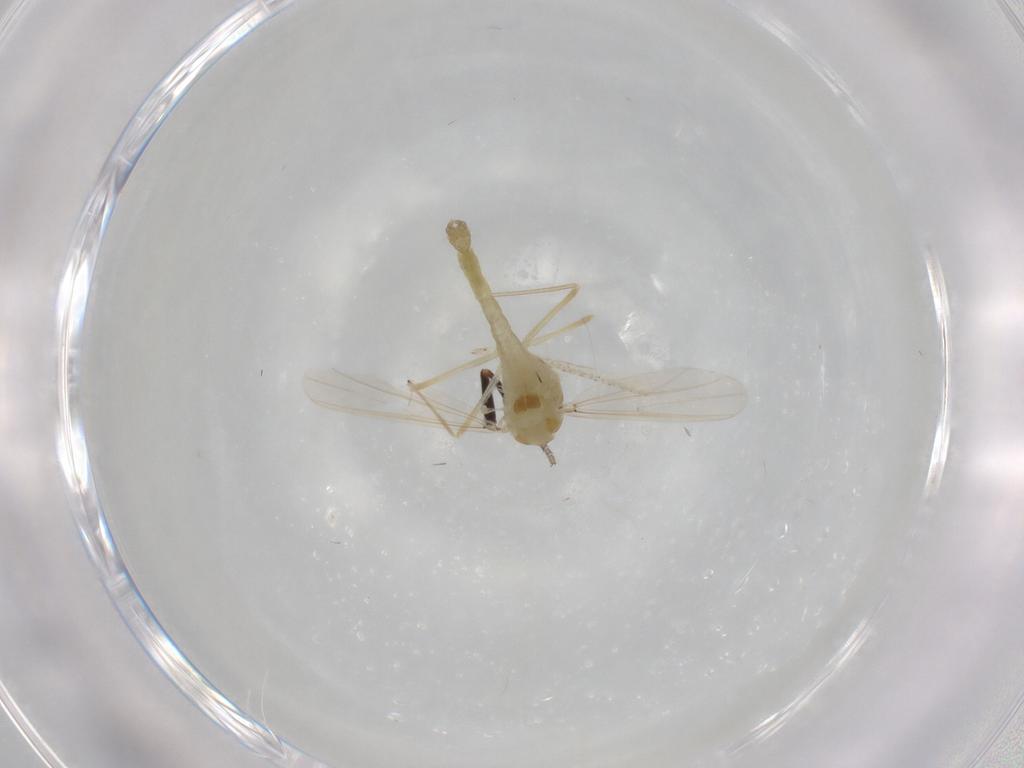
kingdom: Animalia
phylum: Arthropoda
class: Insecta
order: Diptera
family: Chironomidae
